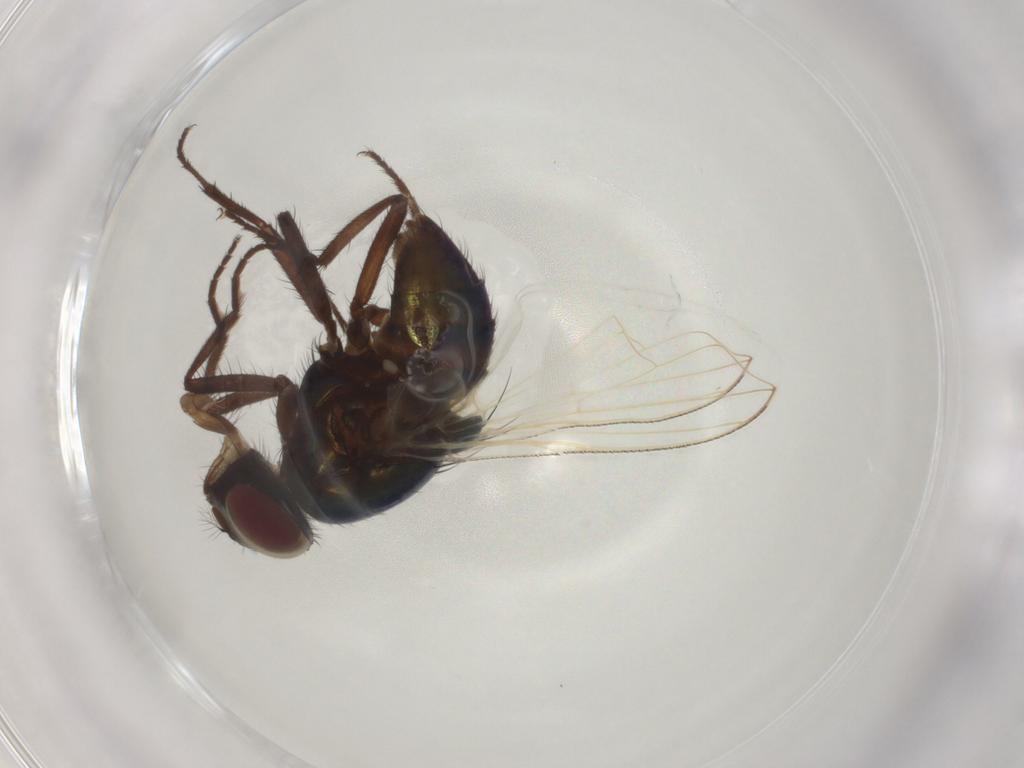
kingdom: Animalia
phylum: Arthropoda
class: Insecta
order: Diptera
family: Muscidae
